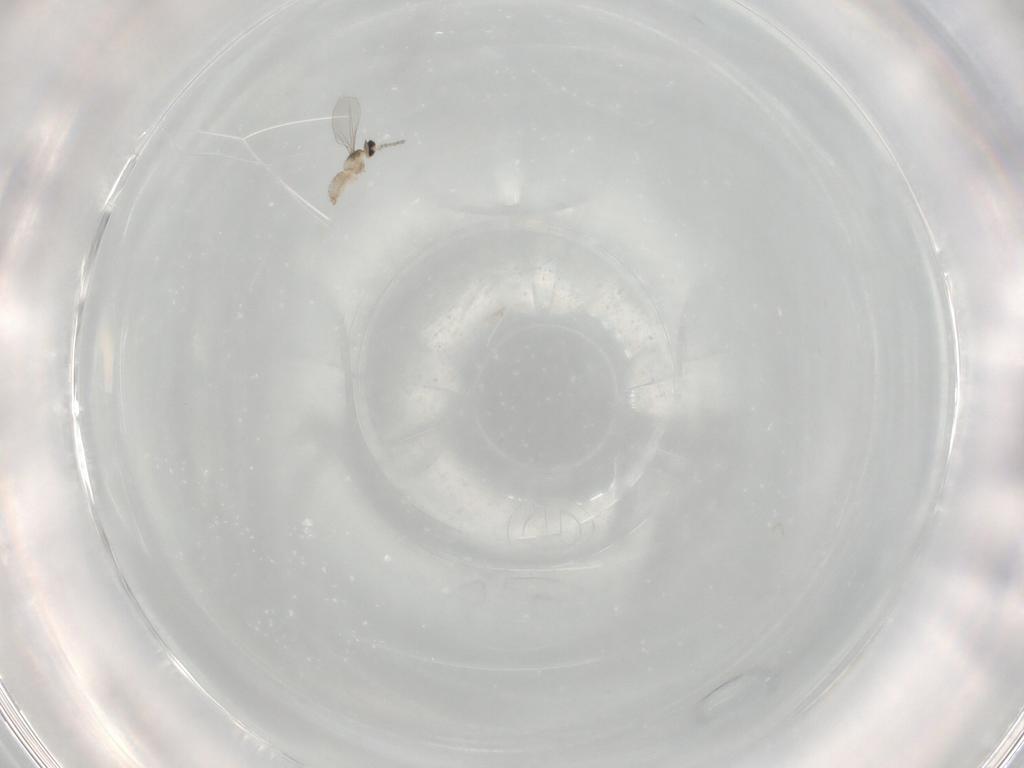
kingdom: Animalia
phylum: Arthropoda
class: Insecta
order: Diptera
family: Cecidomyiidae
